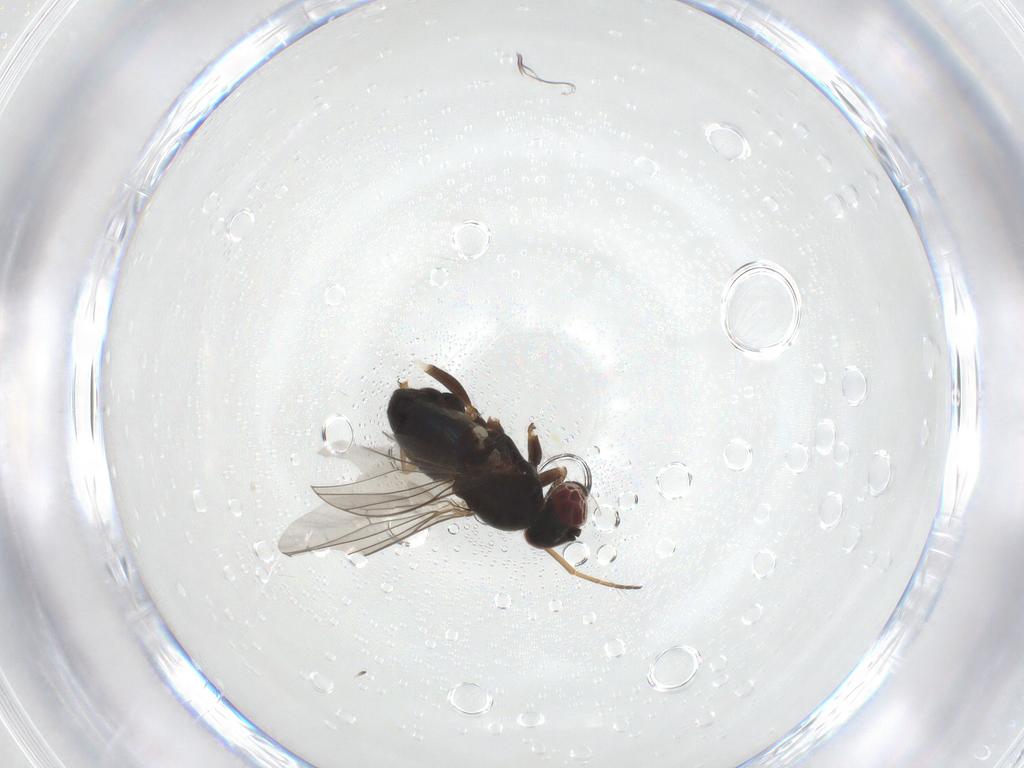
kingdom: Animalia
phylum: Arthropoda
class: Insecta
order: Diptera
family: Dolichopodidae
